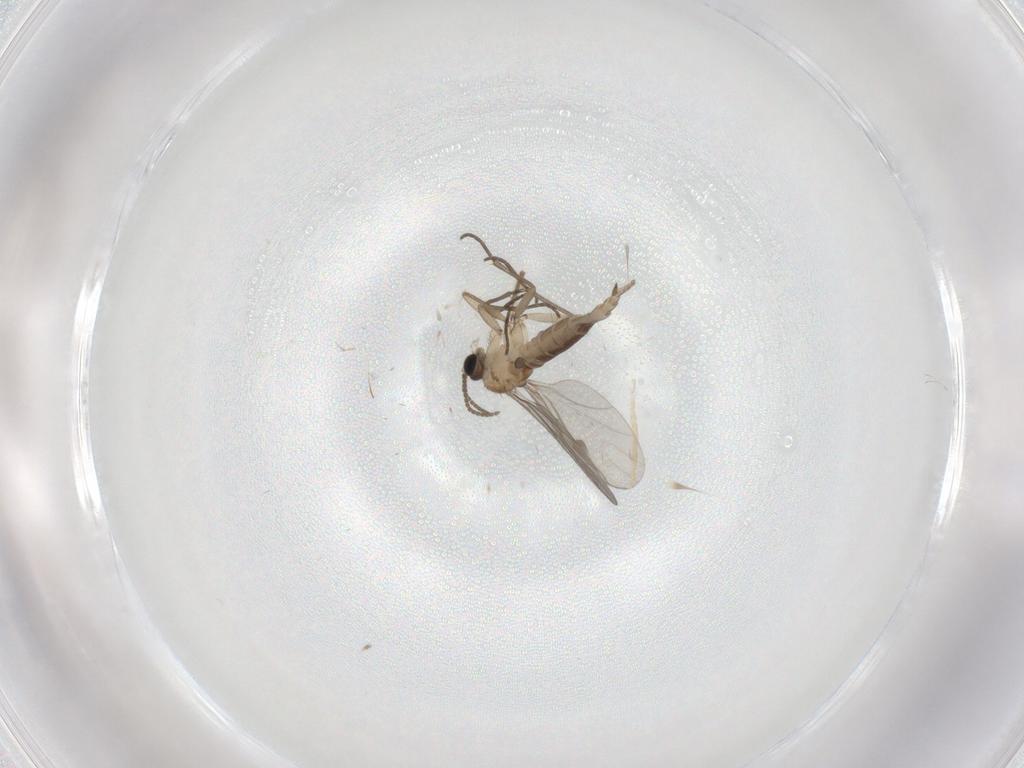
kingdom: Animalia
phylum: Arthropoda
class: Insecta
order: Diptera
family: Sciaridae
